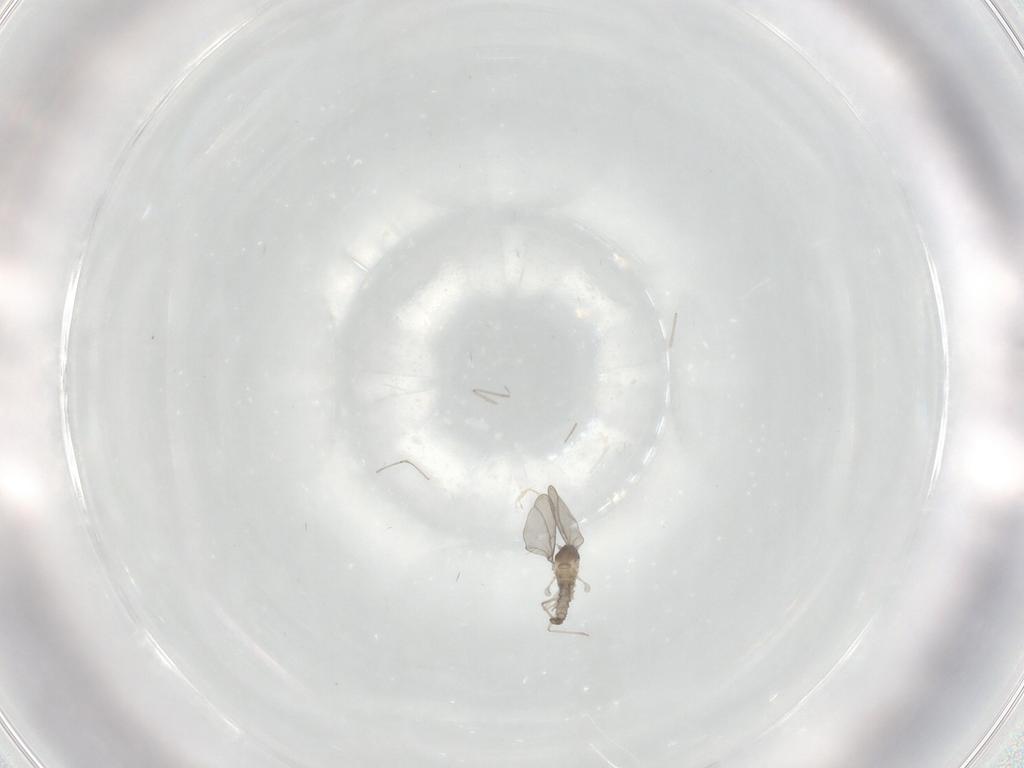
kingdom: Animalia
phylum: Arthropoda
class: Insecta
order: Diptera
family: Cecidomyiidae
